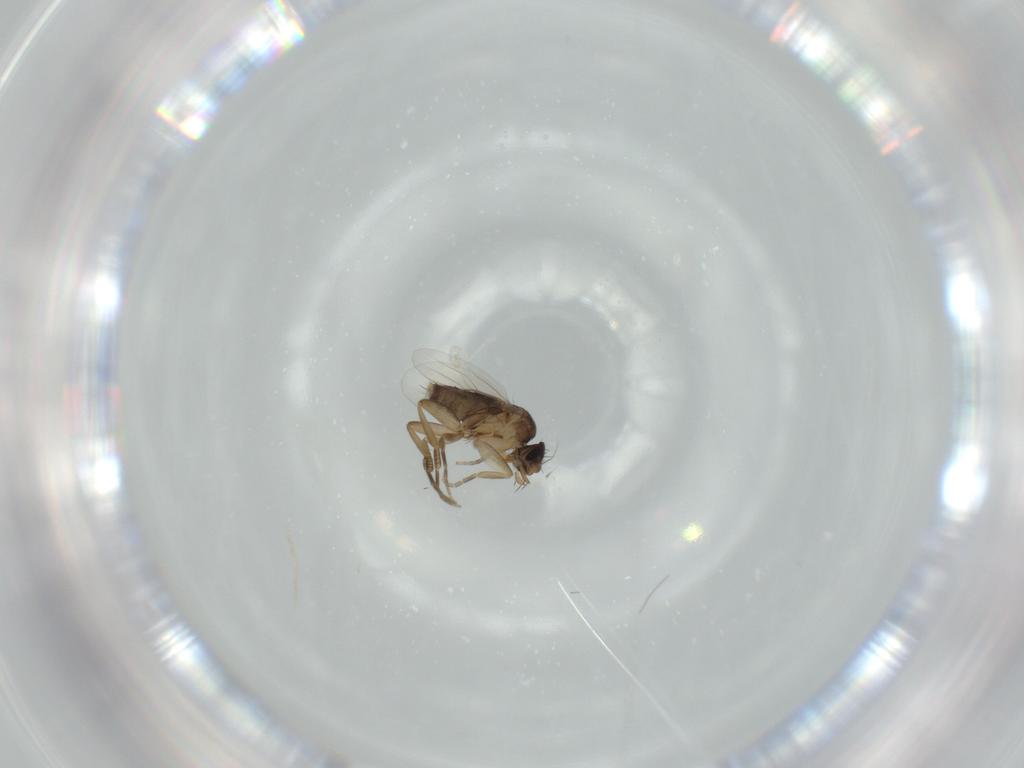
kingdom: Animalia
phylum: Arthropoda
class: Insecta
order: Diptera
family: Phoridae
